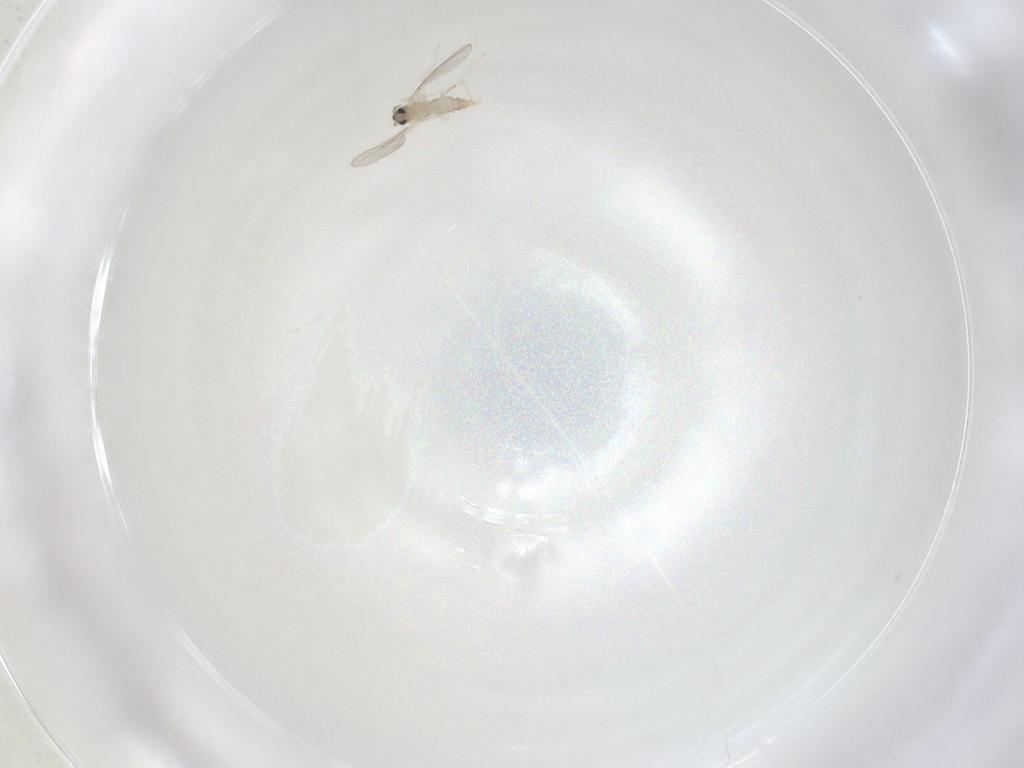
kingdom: Animalia
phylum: Arthropoda
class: Insecta
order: Diptera
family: Cecidomyiidae
